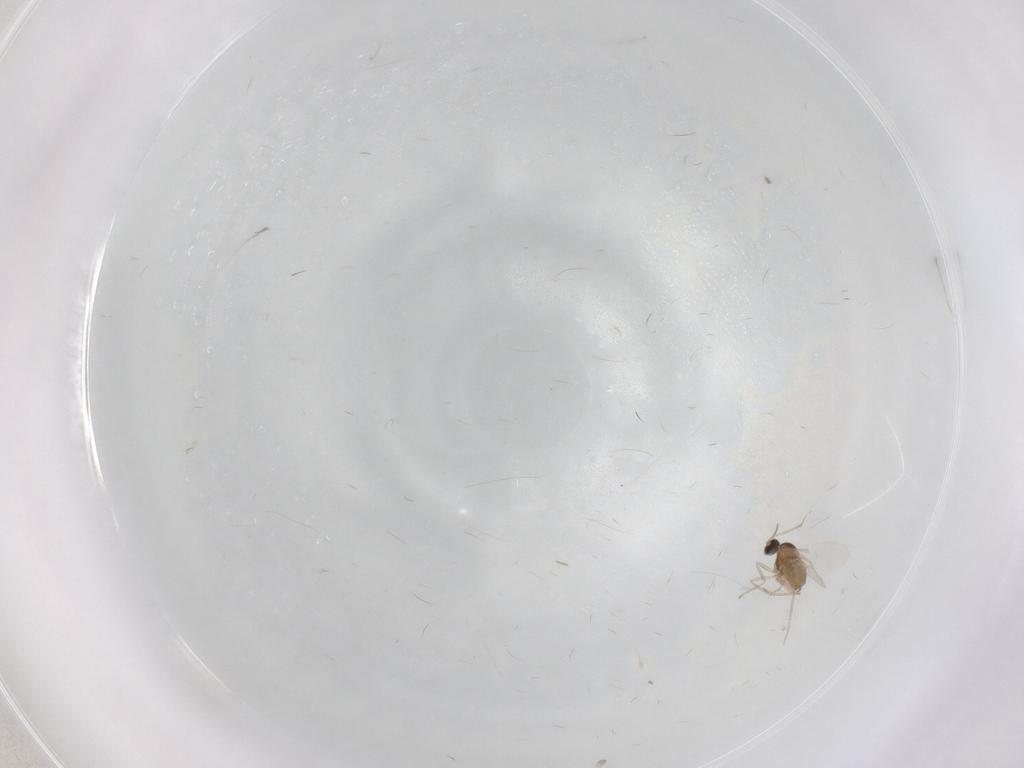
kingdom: Animalia
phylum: Arthropoda
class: Insecta
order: Diptera
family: Cecidomyiidae
